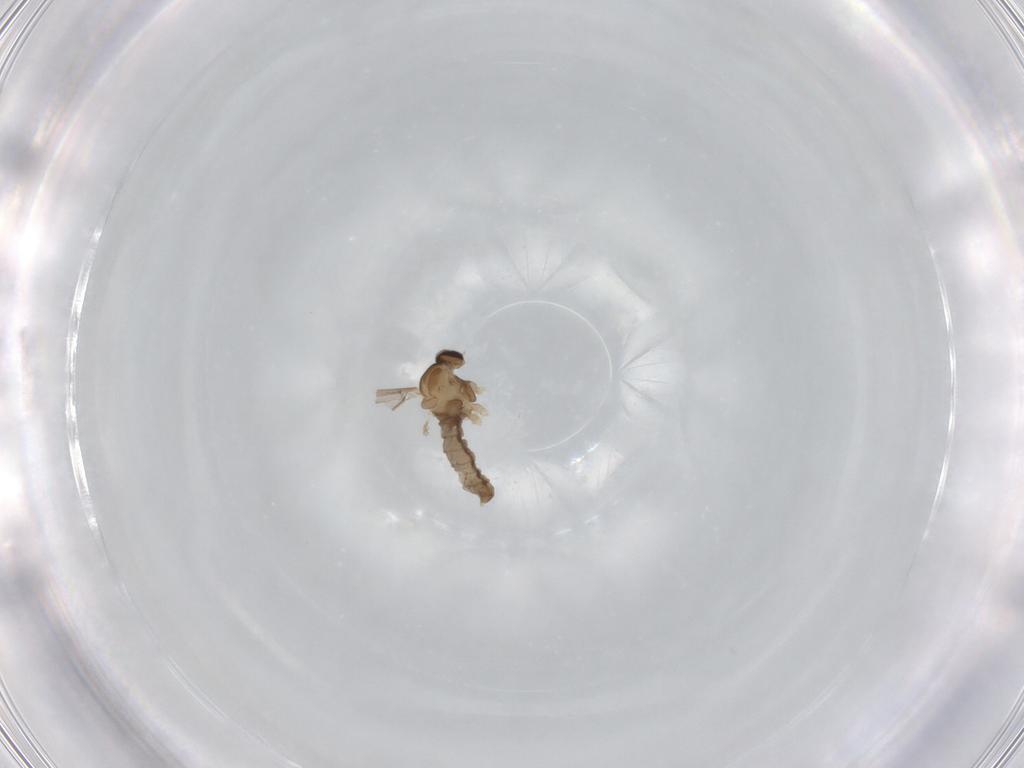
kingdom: Animalia
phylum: Arthropoda
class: Insecta
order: Diptera
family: Cecidomyiidae
